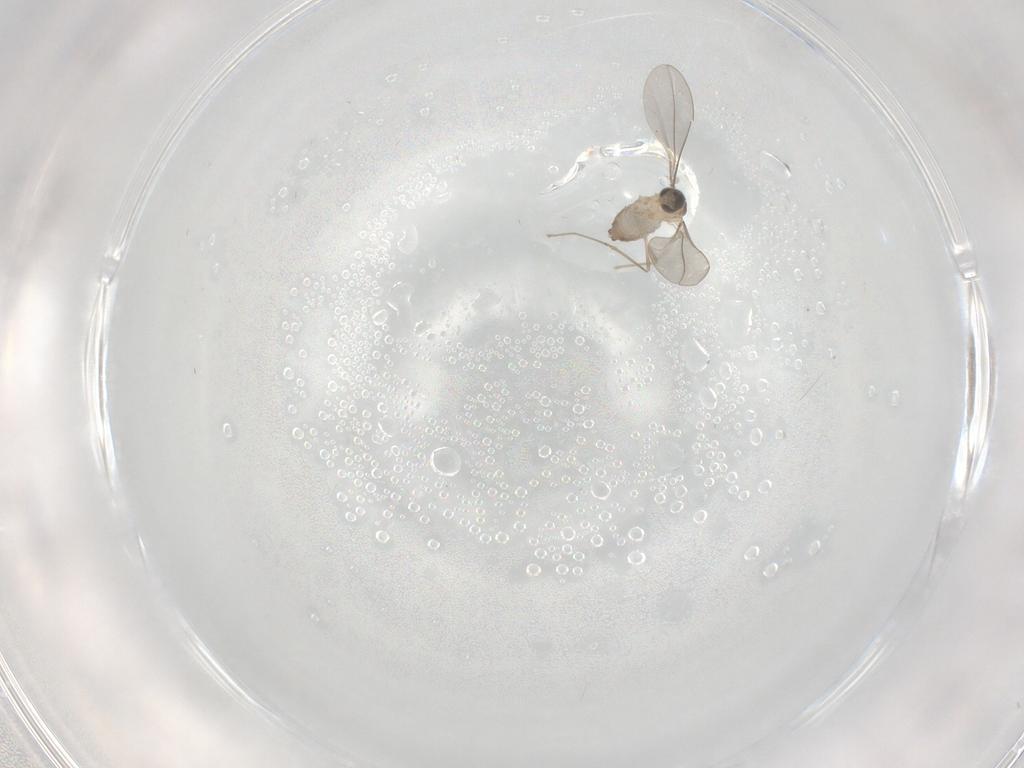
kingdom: Animalia
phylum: Arthropoda
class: Insecta
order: Diptera
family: Cecidomyiidae
